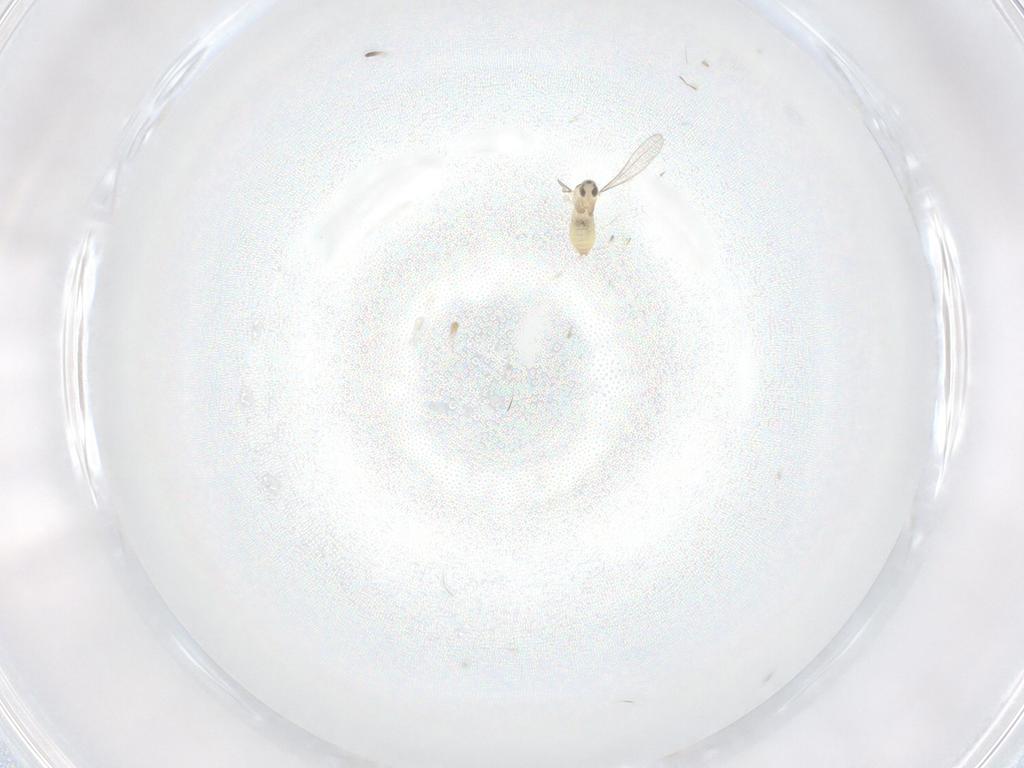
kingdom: Animalia
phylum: Arthropoda
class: Insecta
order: Diptera
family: Cecidomyiidae
